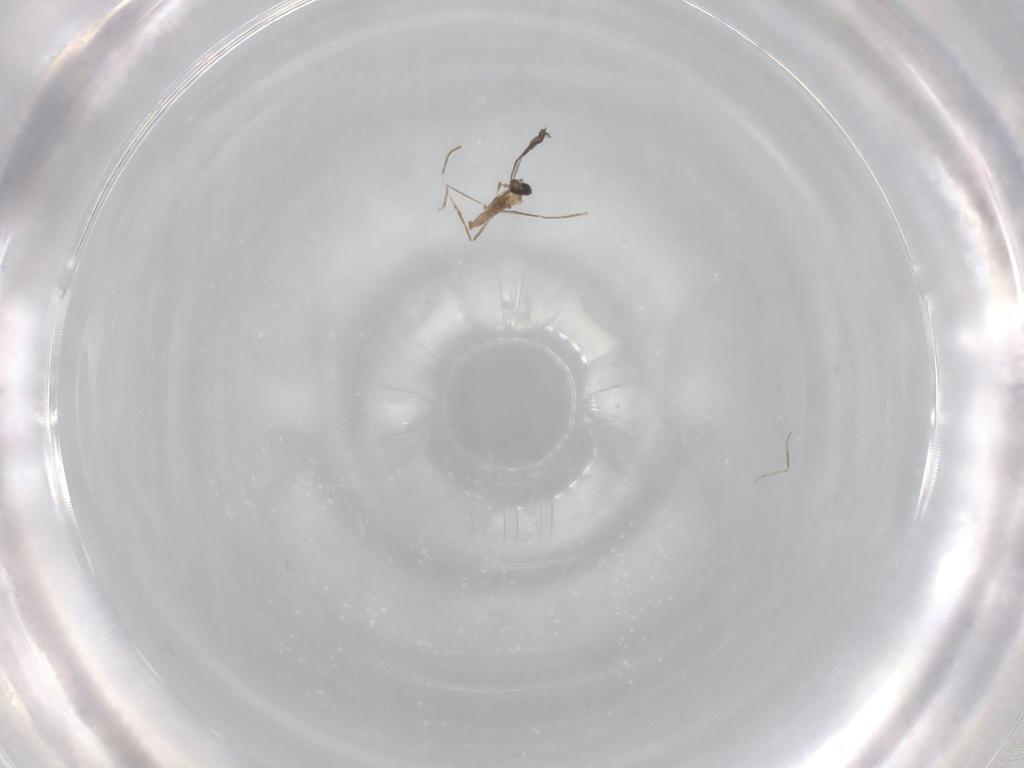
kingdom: Animalia
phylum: Arthropoda
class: Insecta
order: Diptera
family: Cecidomyiidae
